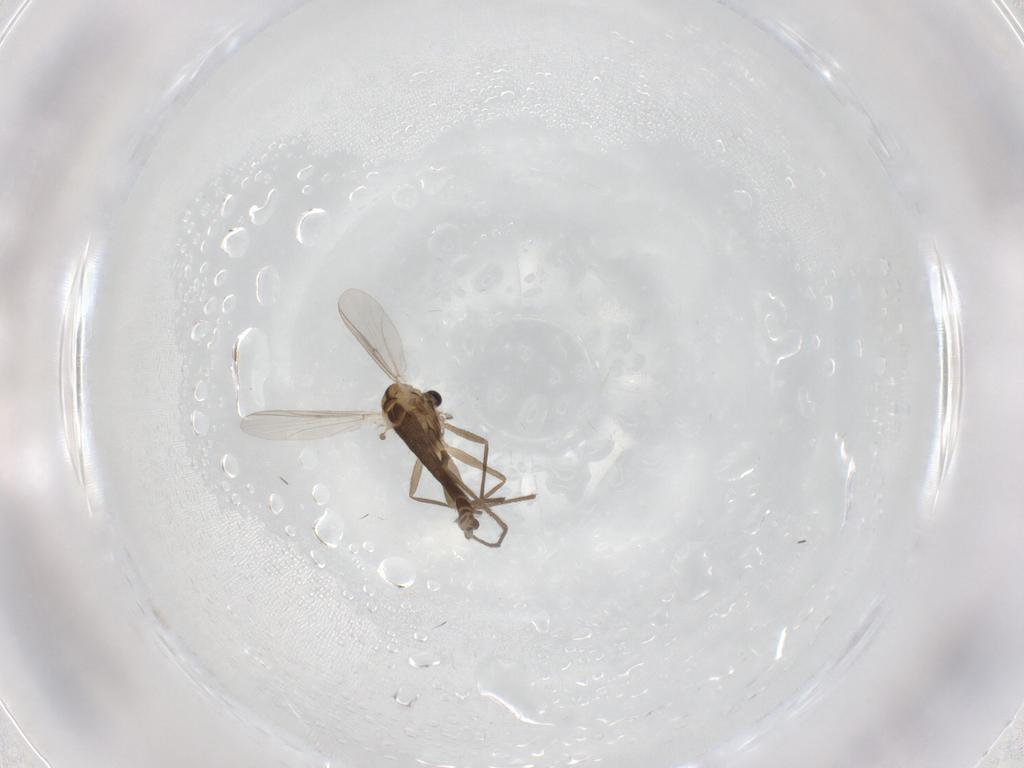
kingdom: Animalia
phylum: Arthropoda
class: Insecta
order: Diptera
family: Chironomidae
